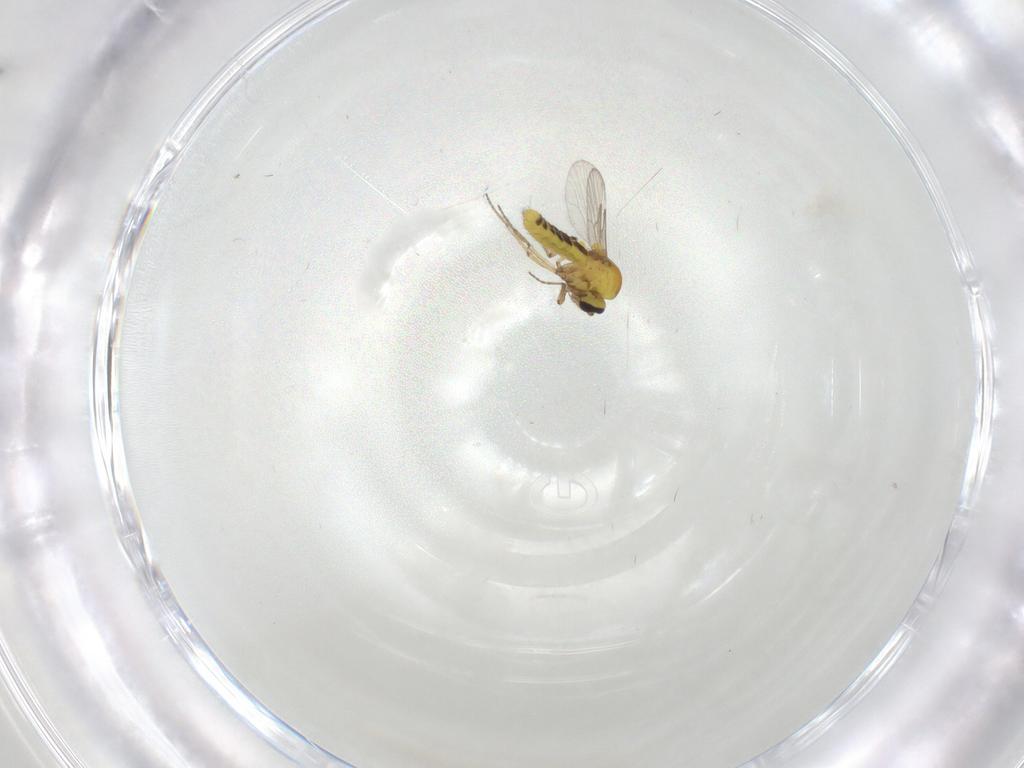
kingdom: Animalia
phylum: Arthropoda
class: Insecta
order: Diptera
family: Ceratopogonidae
